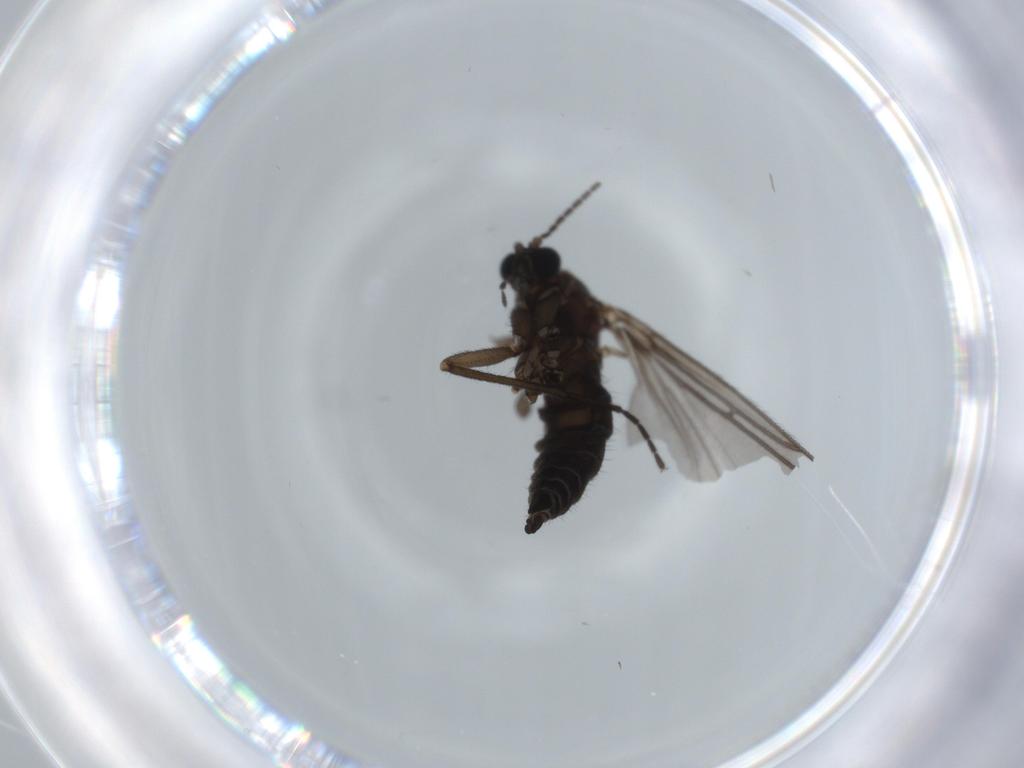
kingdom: Animalia
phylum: Arthropoda
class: Insecta
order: Diptera
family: Sciaridae
